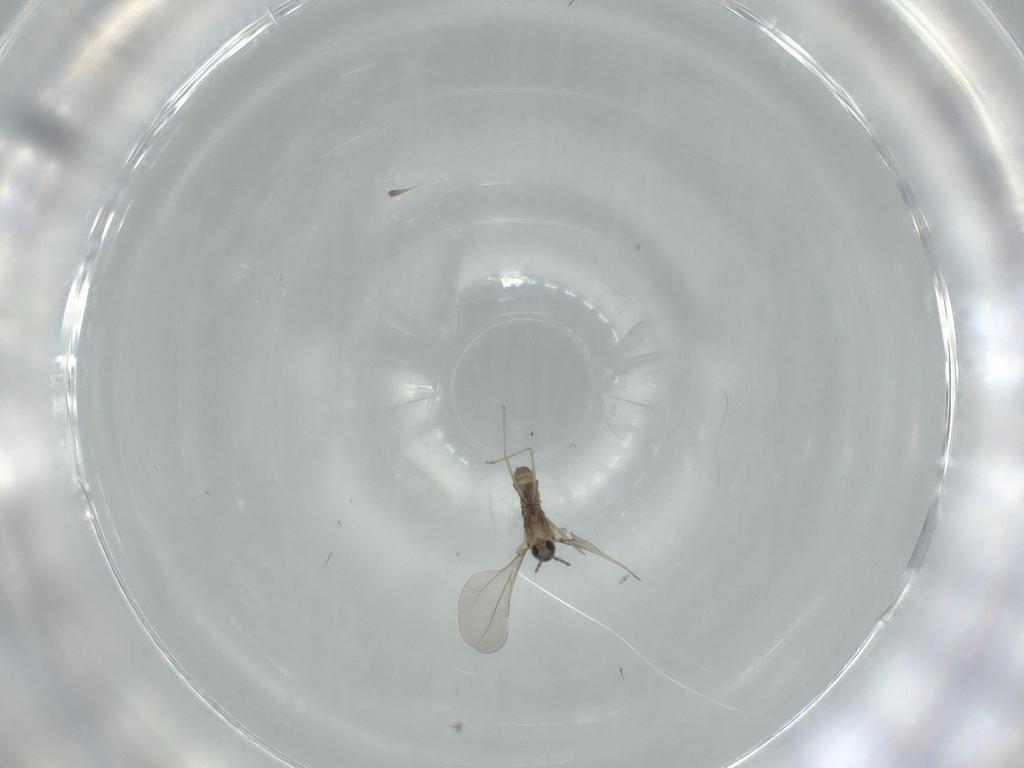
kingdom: Animalia
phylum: Arthropoda
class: Insecta
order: Diptera
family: Cecidomyiidae
